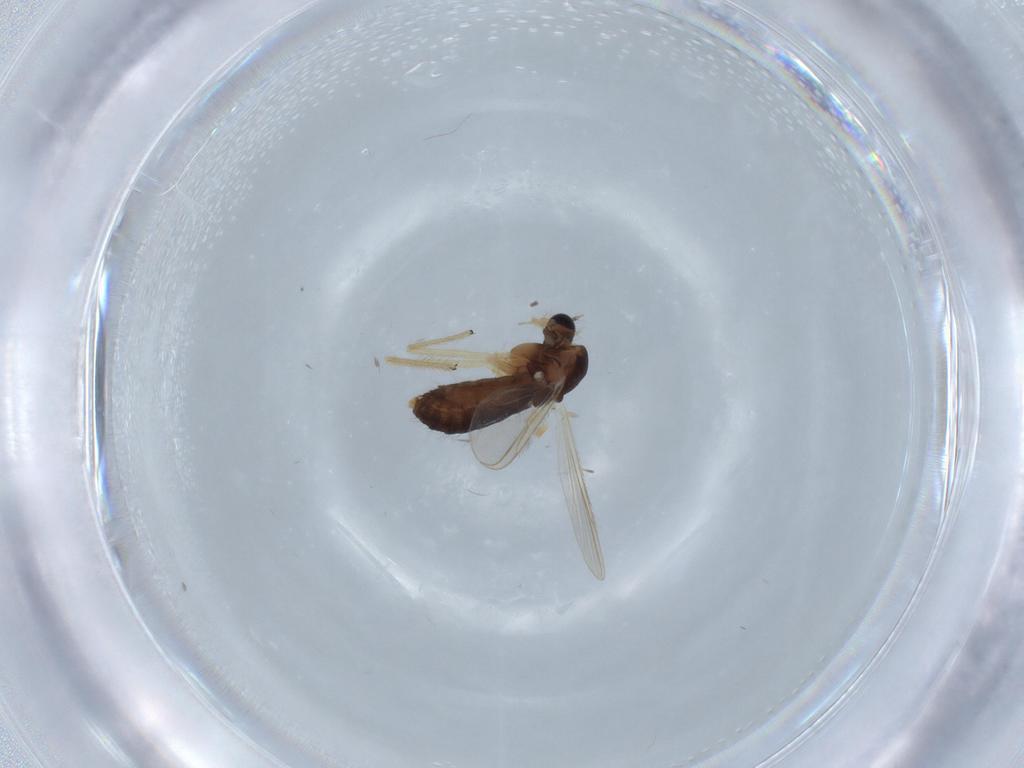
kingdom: Animalia
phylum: Arthropoda
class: Insecta
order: Diptera
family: Chironomidae
